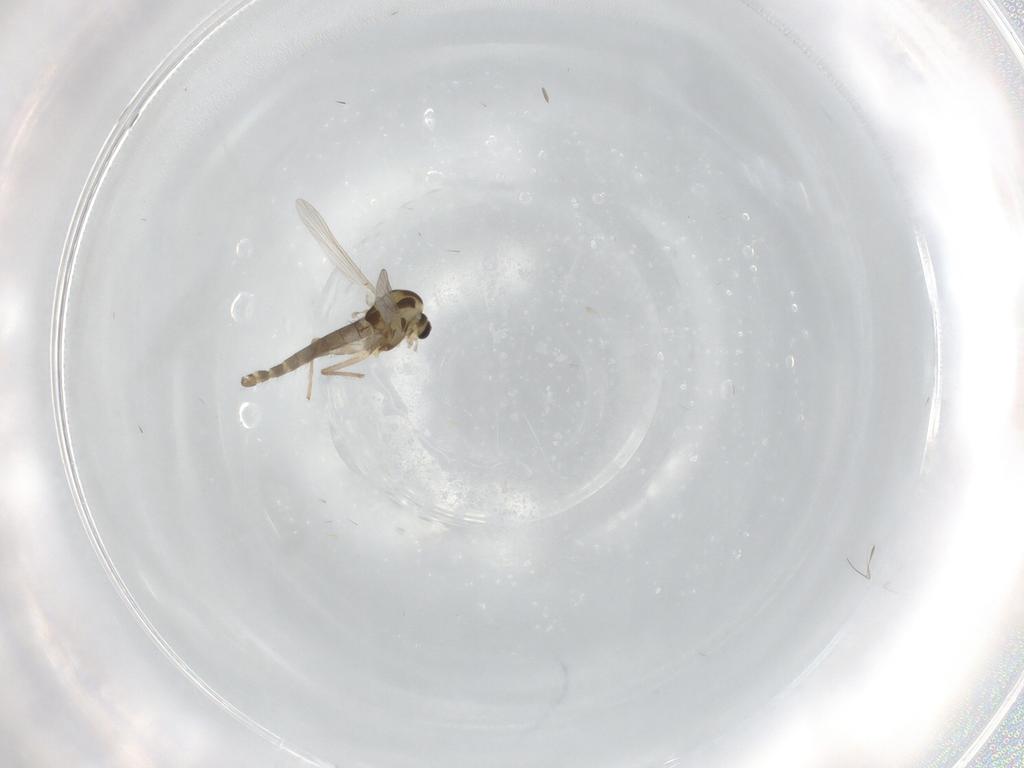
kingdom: Animalia
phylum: Arthropoda
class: Insecta
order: Diptera
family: Chironomidae
